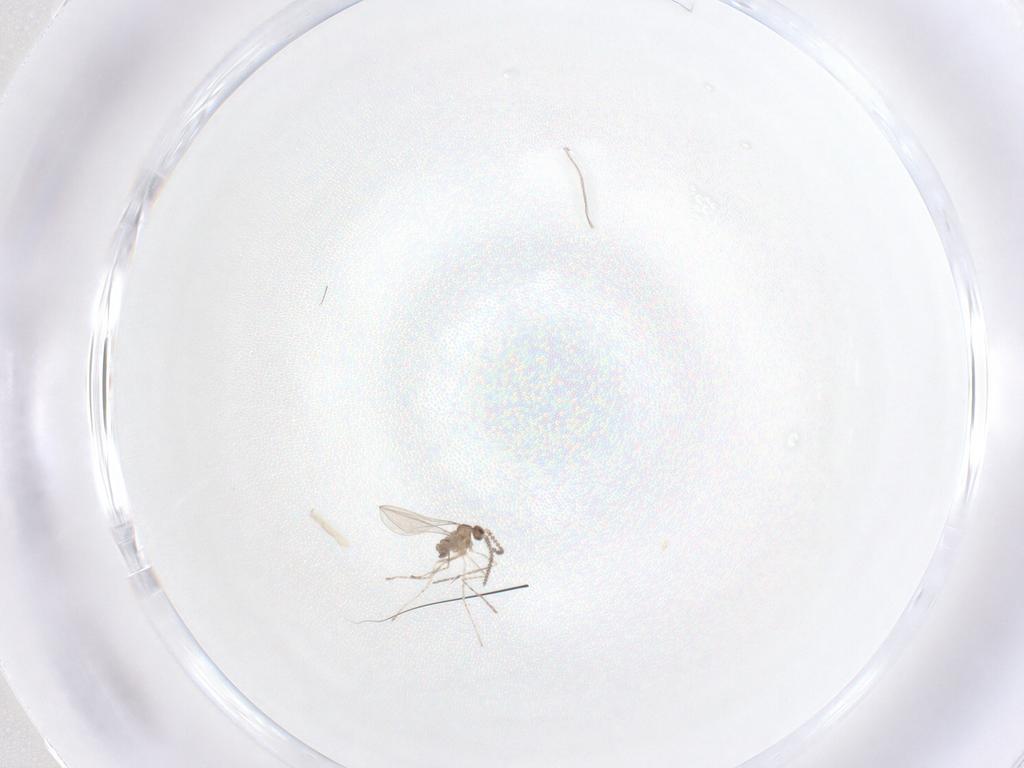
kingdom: Animalia
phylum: Arthropoda
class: Insecta
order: Diptera
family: Cecidomyiidae
